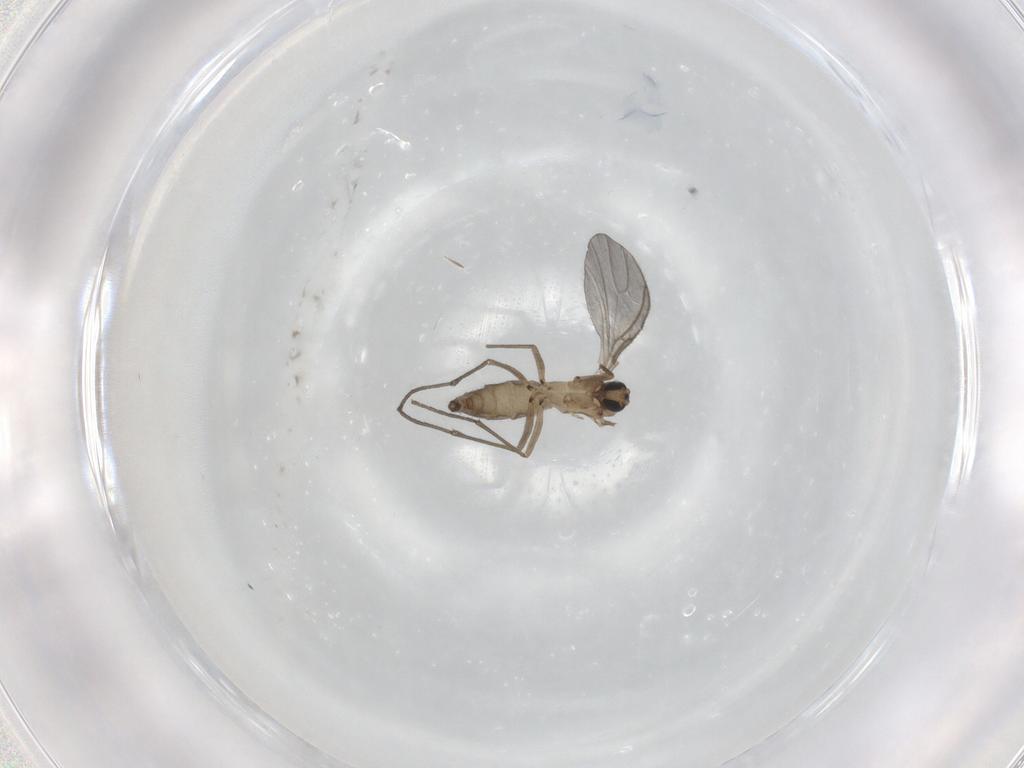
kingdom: Animalia
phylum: Arthropoda
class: Insecta
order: Diptera
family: Sciaridae
